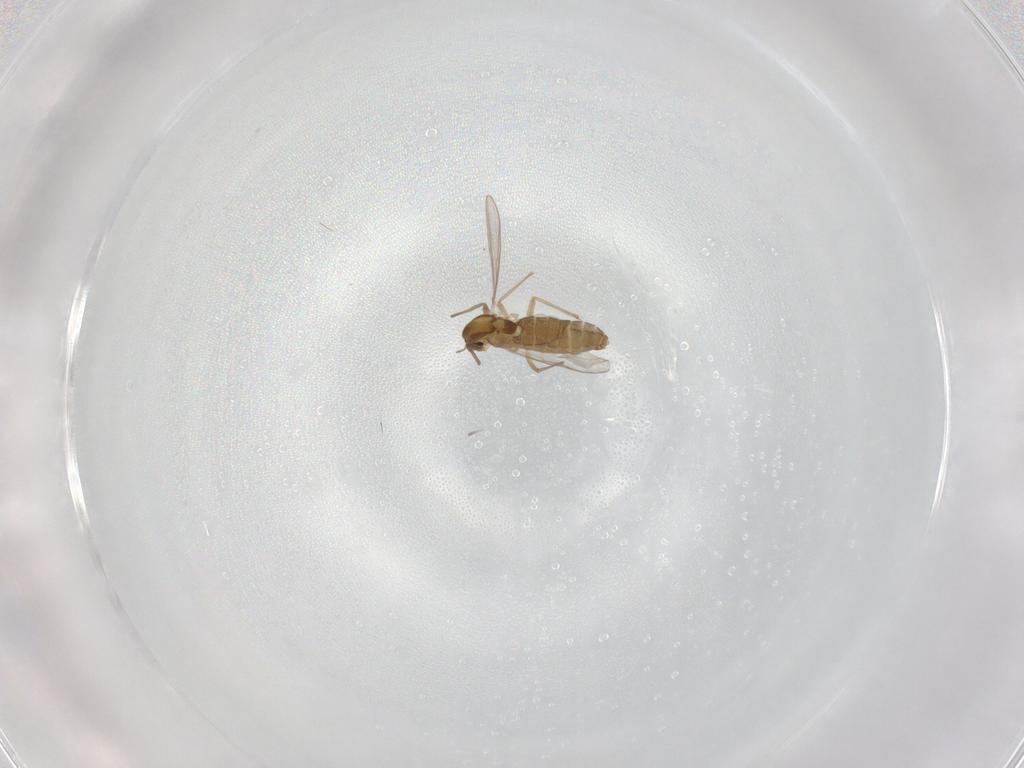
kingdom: Animalia
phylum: Arthropoda
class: Insecta
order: Diptera
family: Chironomidae
